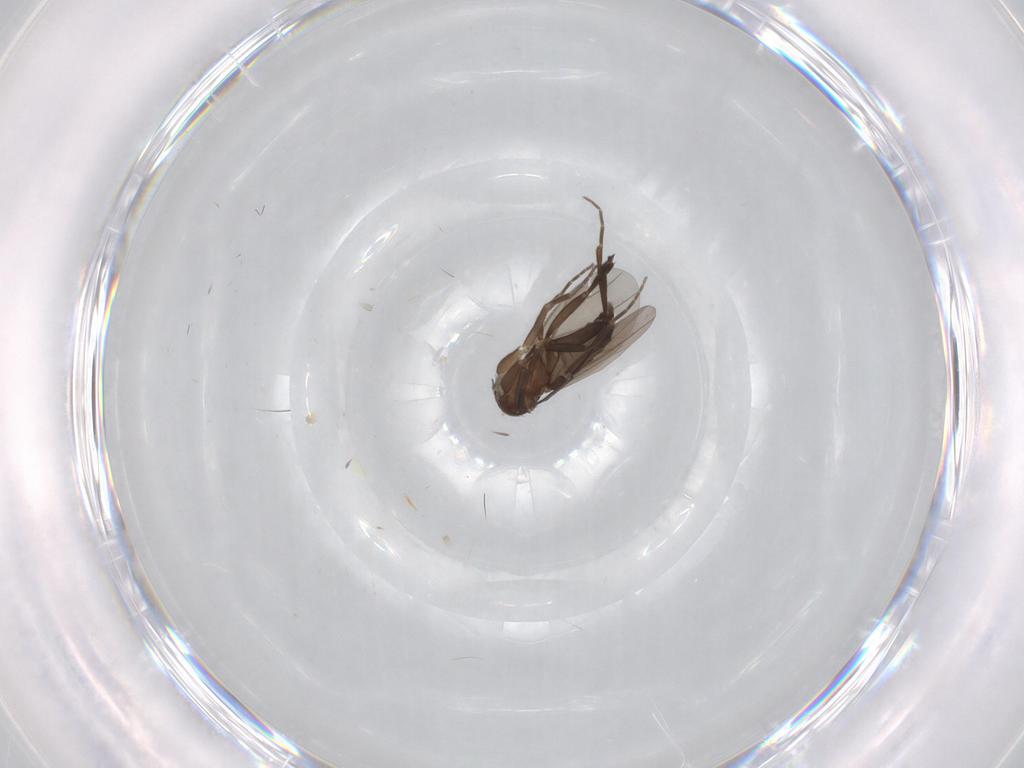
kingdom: Animalia
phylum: Arthropoda
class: Insecta
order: Diptera
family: Phoridae
